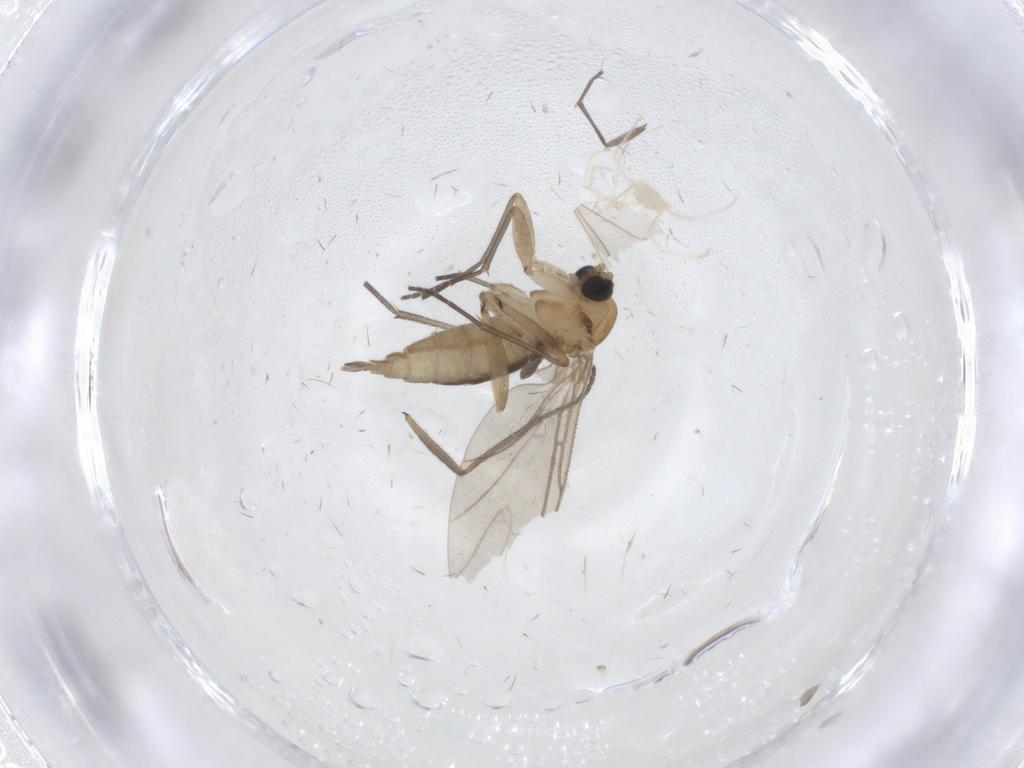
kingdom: Animalia
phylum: Arthropoda
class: Insecta
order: Diptera
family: Sciaridae
